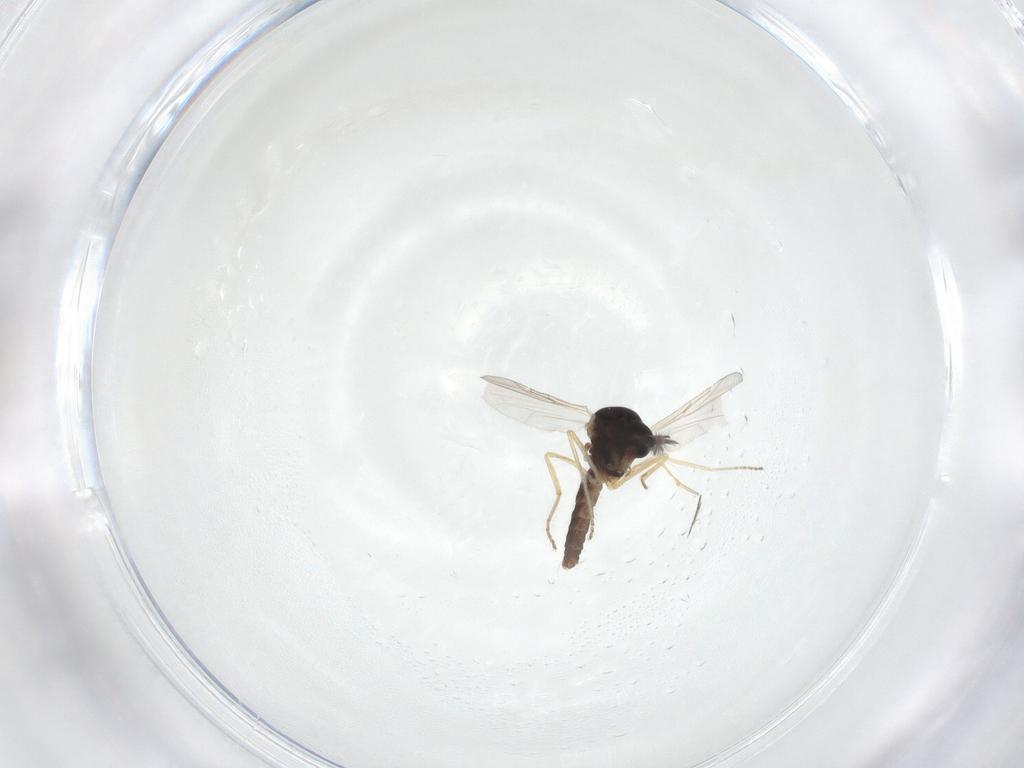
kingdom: Animalia
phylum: Arthropoda
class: Insecta
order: Diptera
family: Ceratopogonidae
